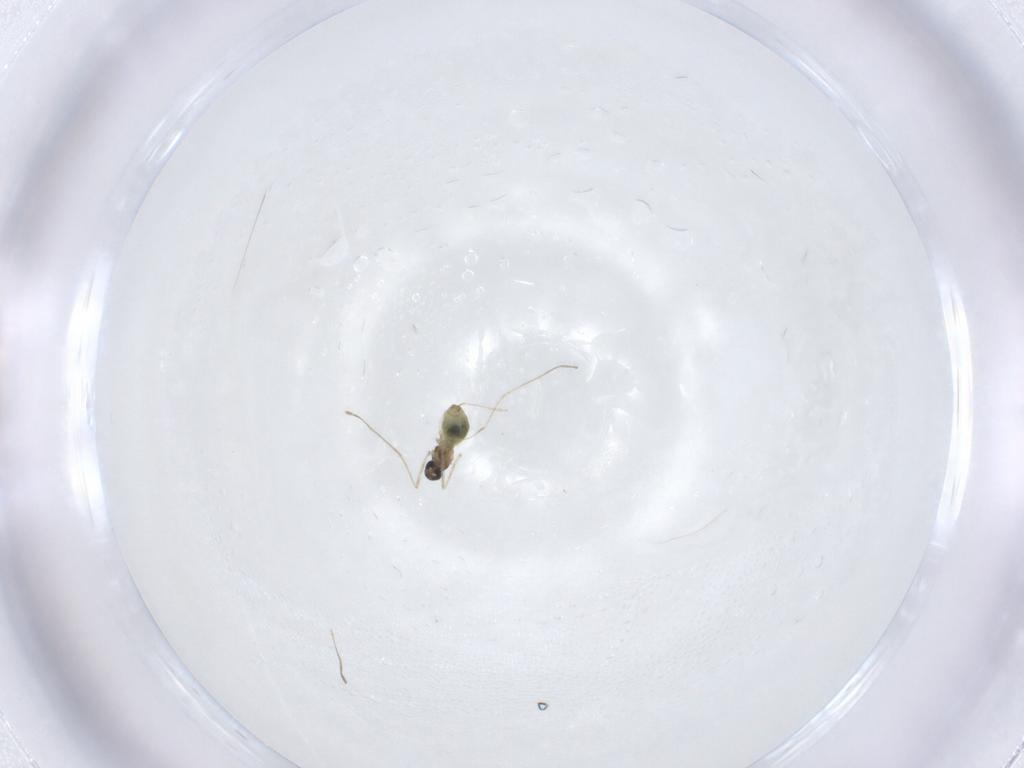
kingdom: Animalia
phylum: Arthropoda
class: Insecta
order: Diptera
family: Cecidomyiidae
